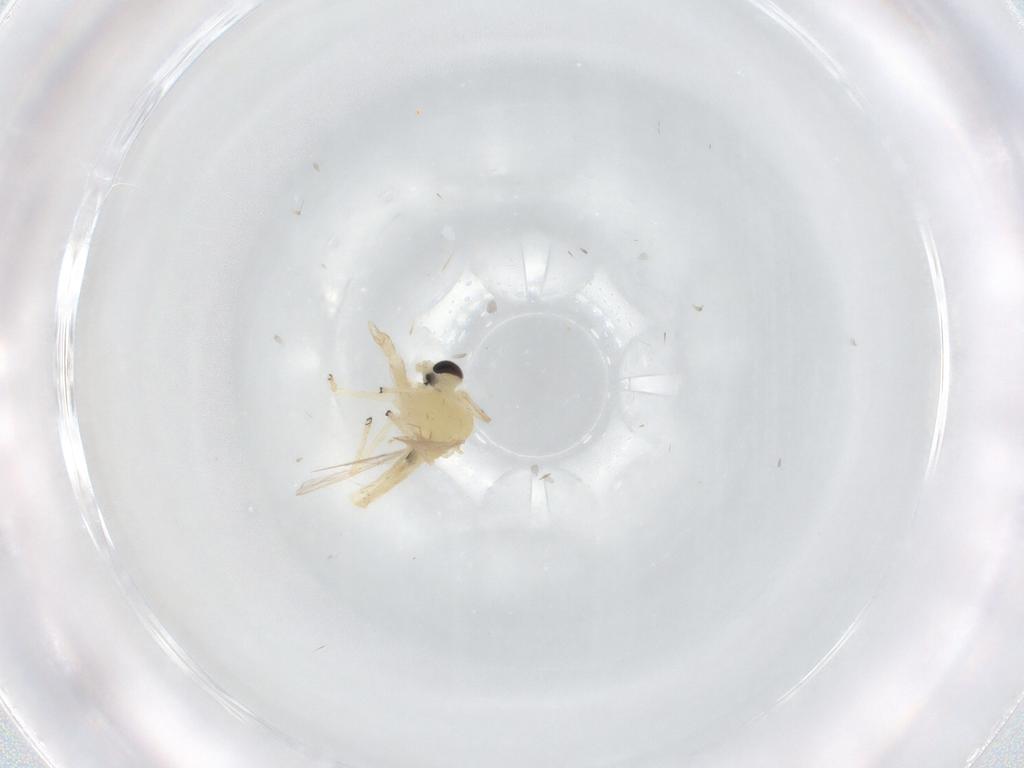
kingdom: Animalia
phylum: Arthropoda
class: Insecta
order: Diptera
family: Chironomidae
